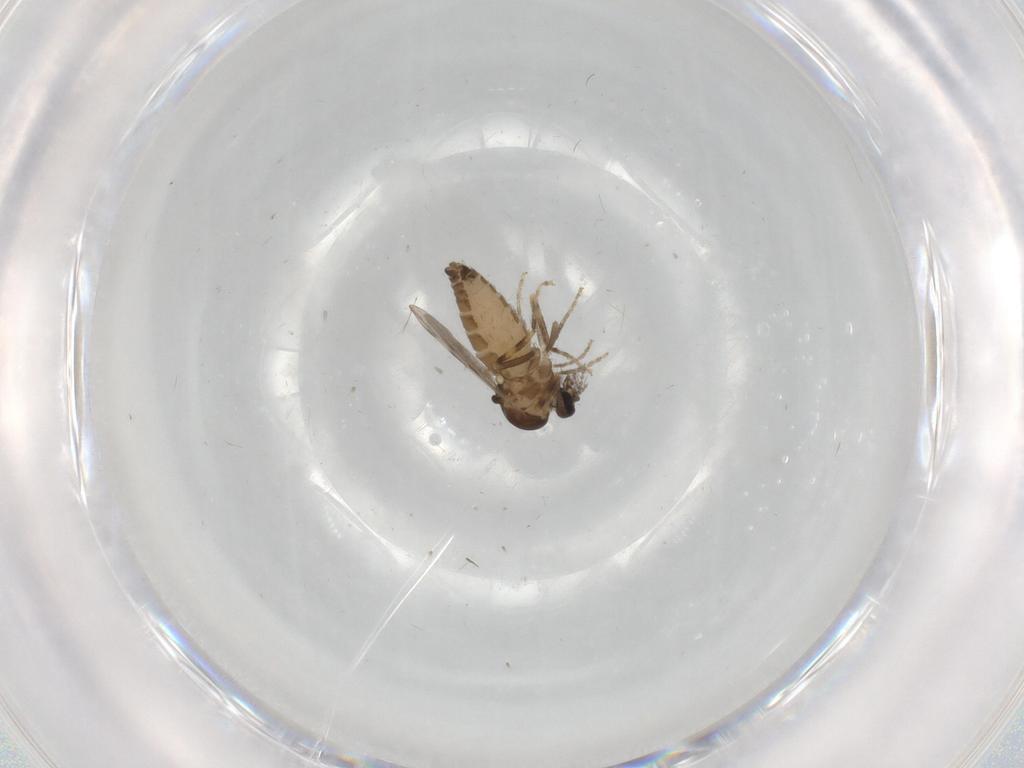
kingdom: Animalia
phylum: Arthropoda
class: Insecta
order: Diptera
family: Ceratopogonidae
